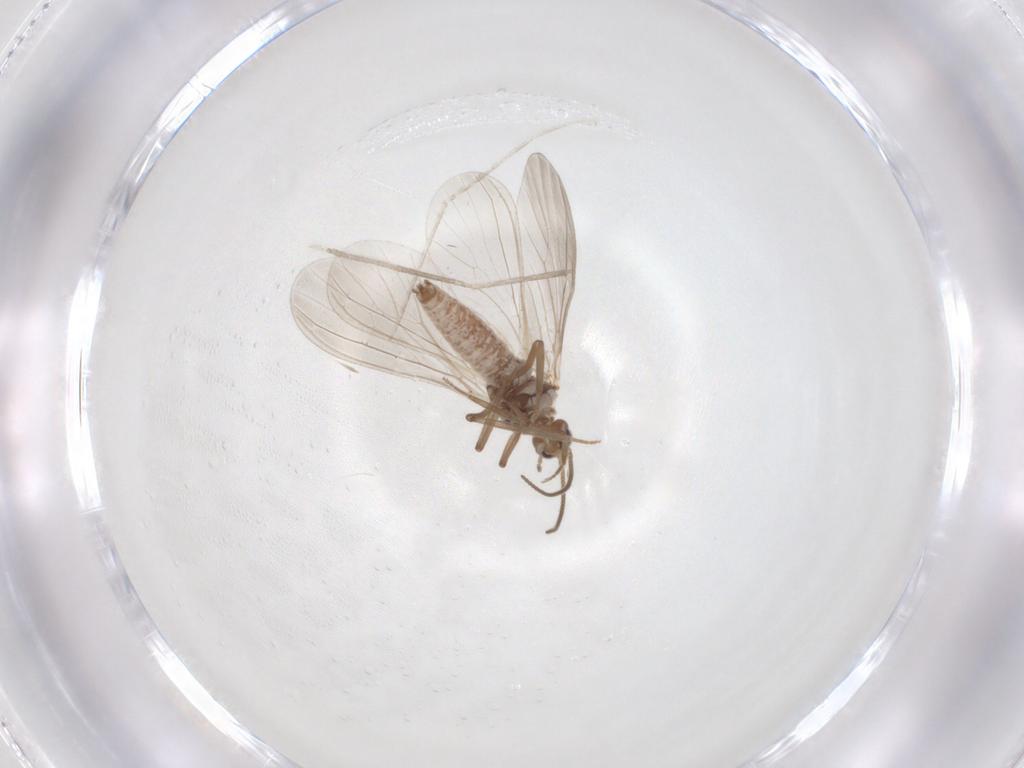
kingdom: Animalia
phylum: Arthropoda
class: Insecta
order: Neuroptera
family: Coniopterygidae
